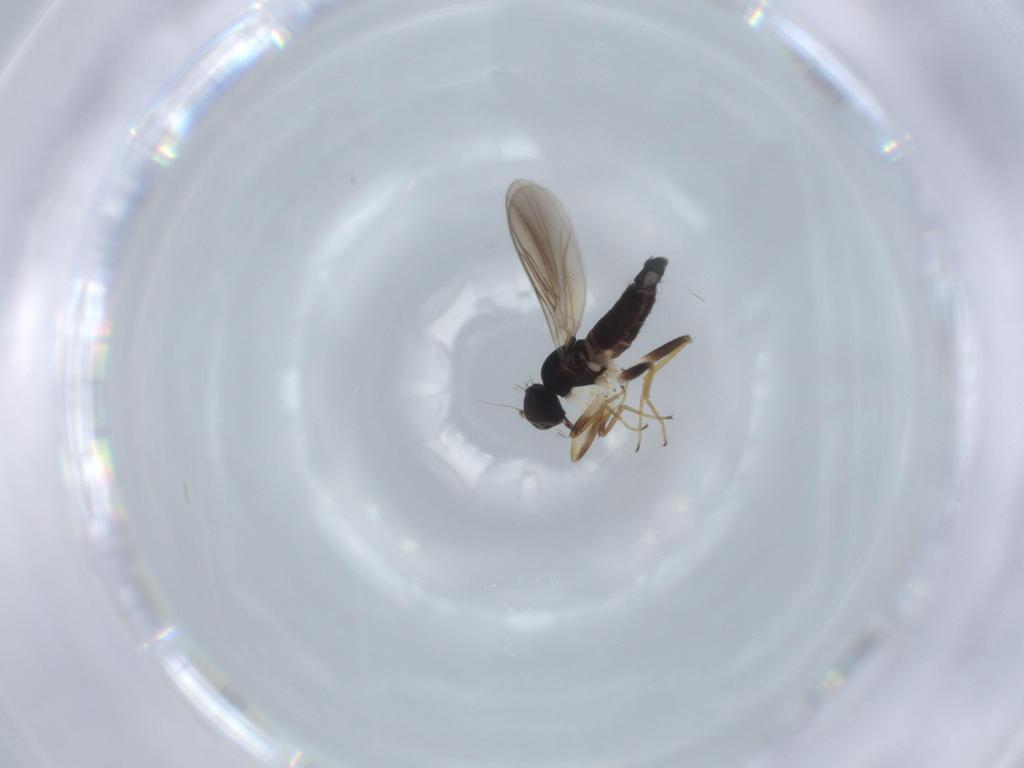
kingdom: Animalia
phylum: Arthropoda
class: Insecta
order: Diptera
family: Hybotidae
